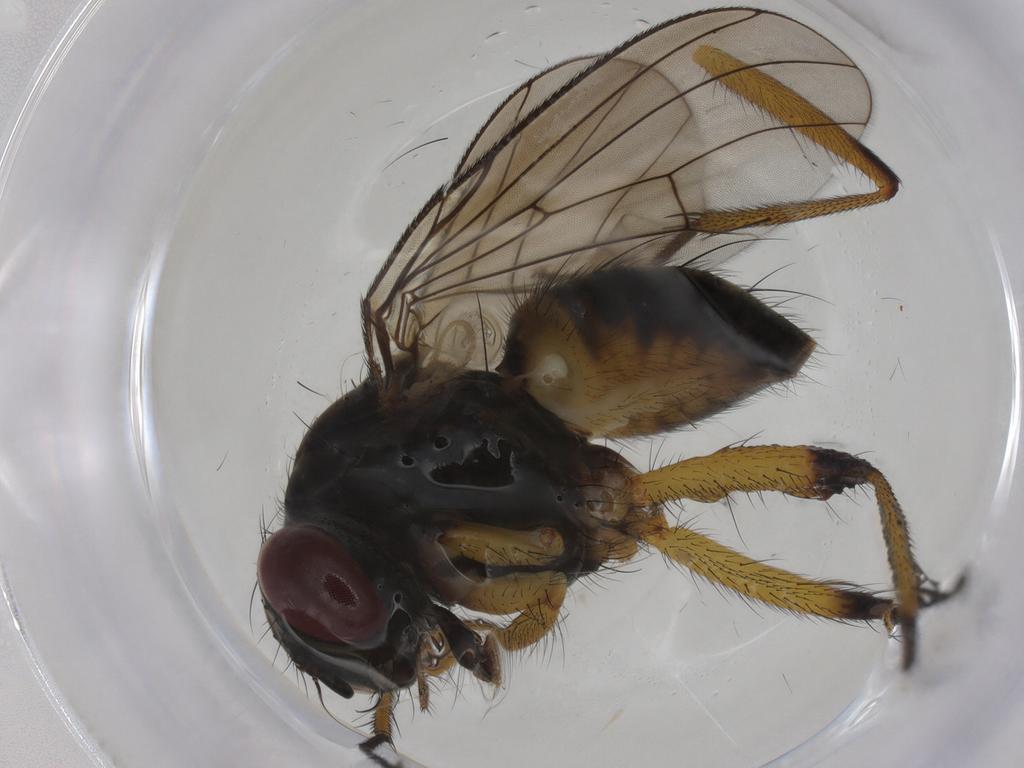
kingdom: Animalia
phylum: Arthropoda
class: Insecta
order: Diptera
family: Muscidae
